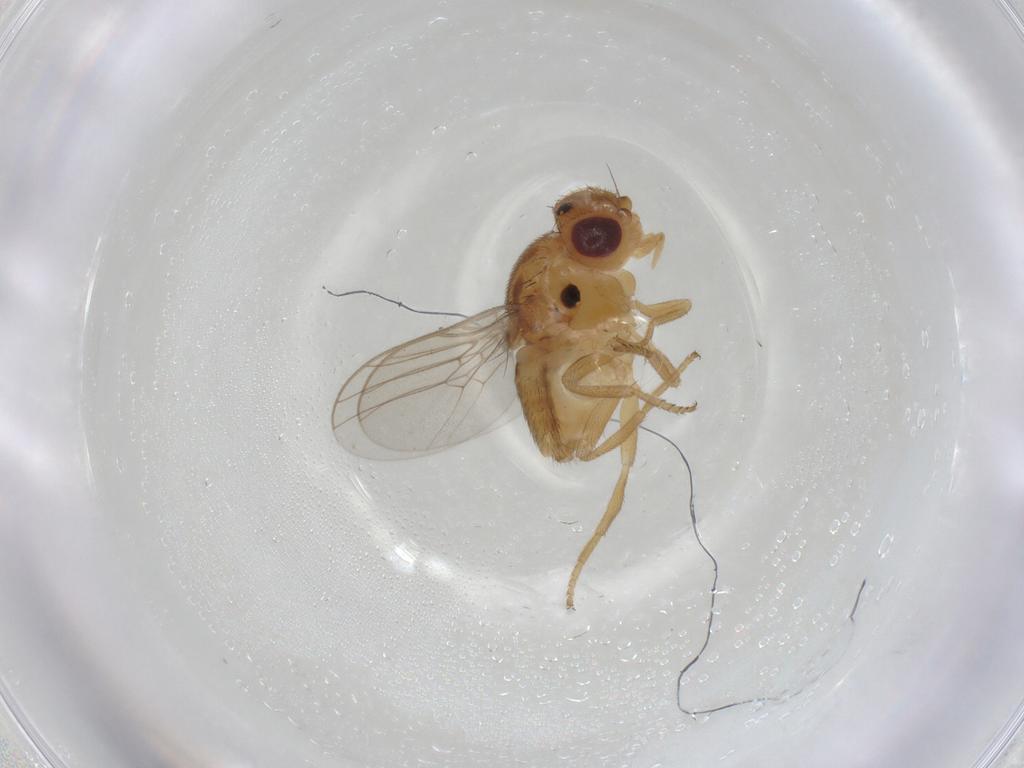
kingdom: Animalia
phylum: Arthropoda
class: Insecta
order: Diptera
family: Chloropidae
